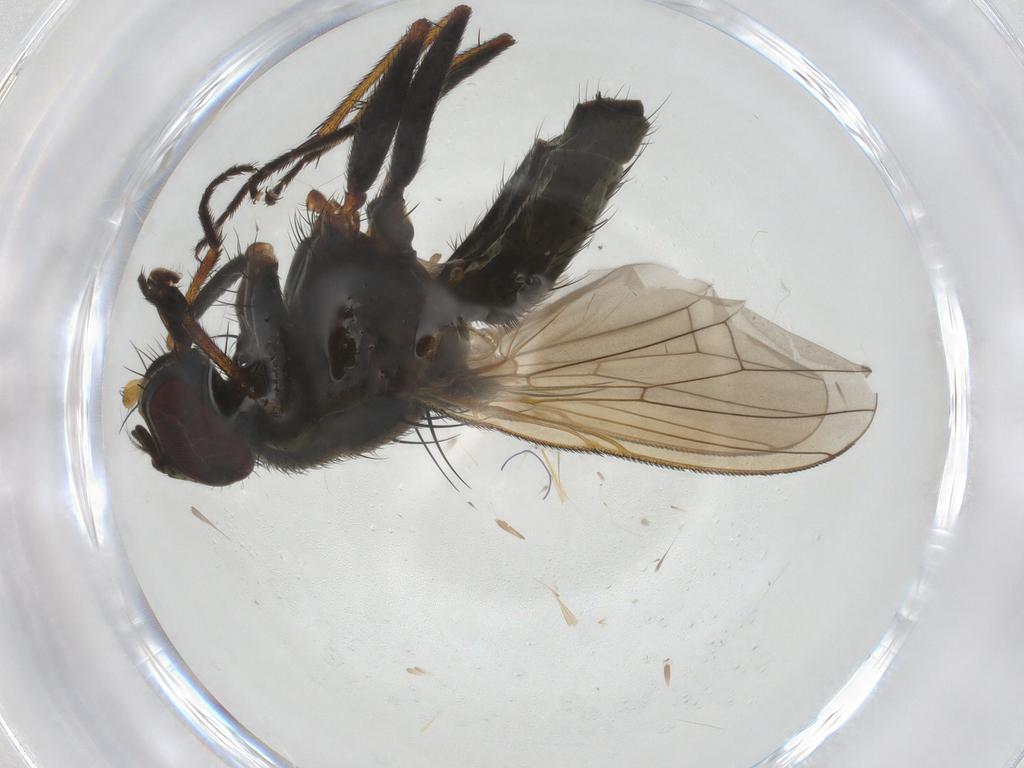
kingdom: Animalia
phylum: Arthropoda
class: Insecta
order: Diptera
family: Muscidae
